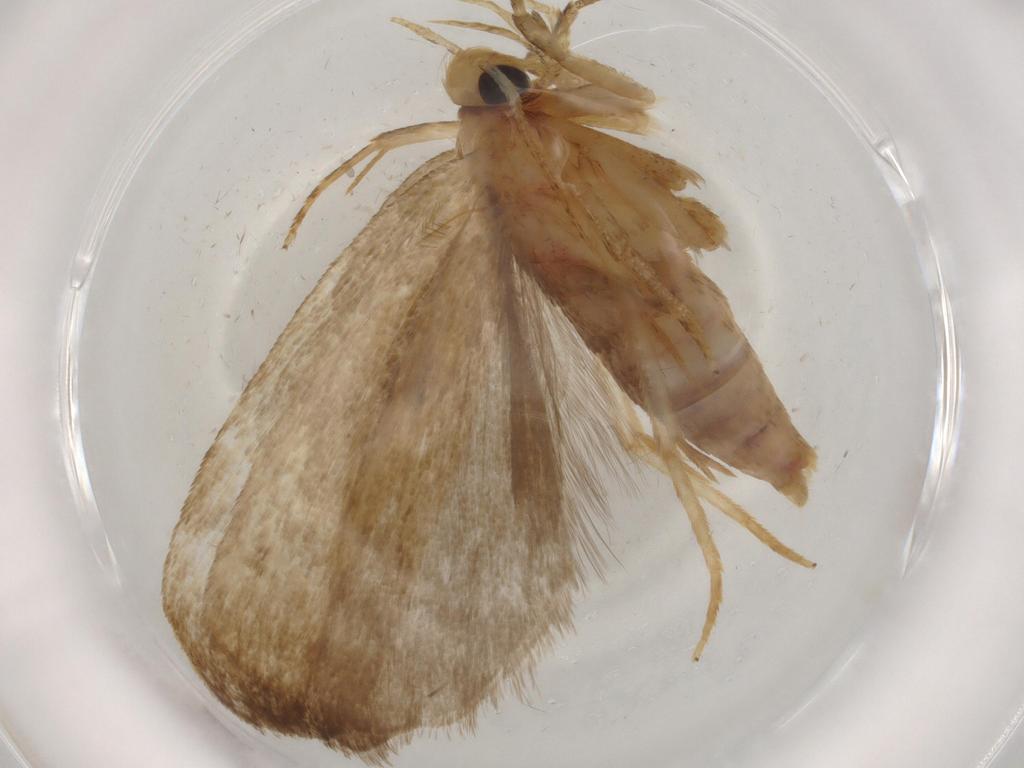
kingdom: Animalia
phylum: Arthropoda
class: Insecta
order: Lepidoptera
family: Autostichidae
